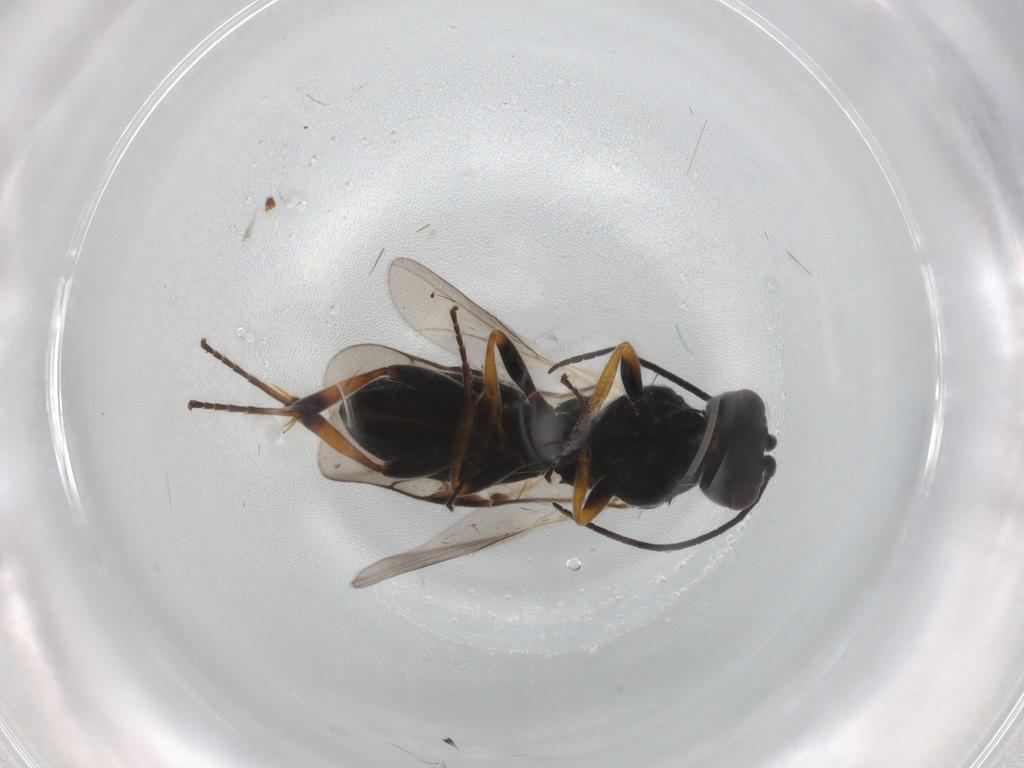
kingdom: Animalia
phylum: Arthropoda
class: Insecta
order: Hymenoptera
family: Braconidae
